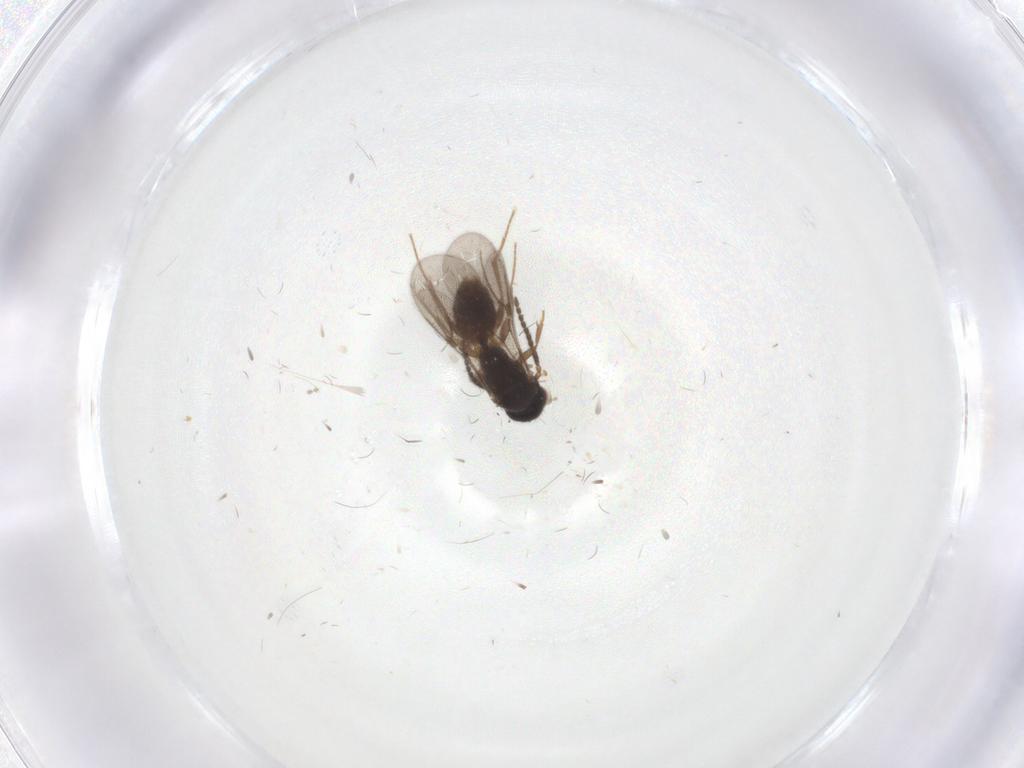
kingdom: Animalia
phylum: Arthropoda
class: Insecta
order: Hymenoptera
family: Bethylidae
